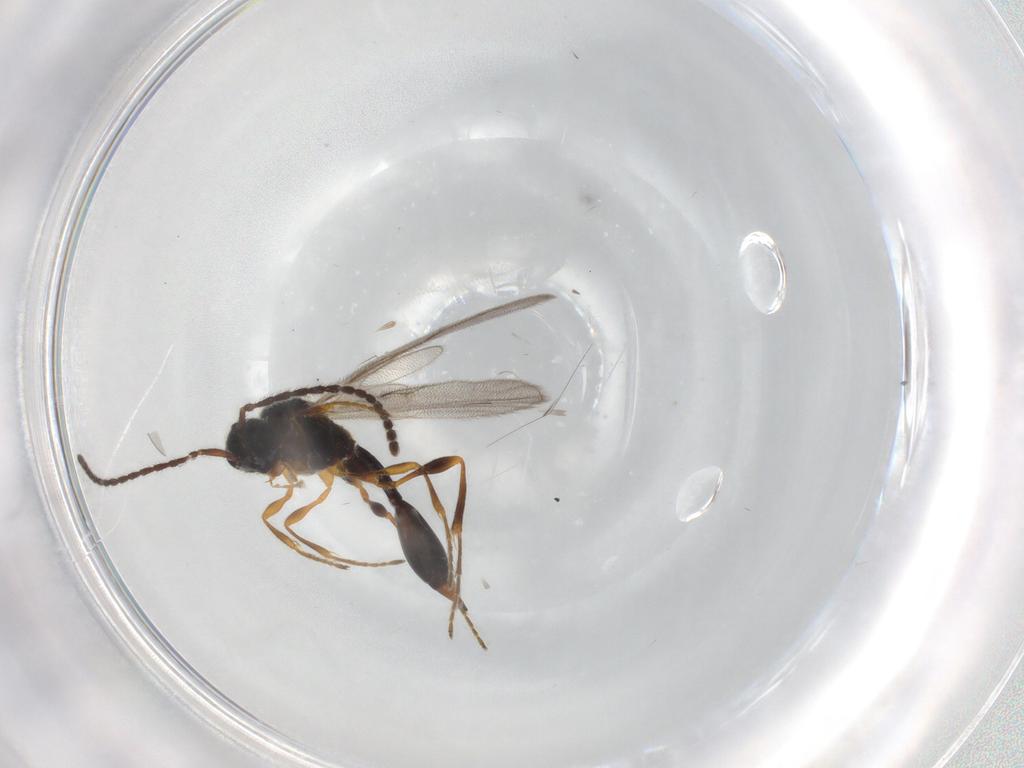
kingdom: Animalia
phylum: Arthropoda
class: Insecta
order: Hymenoptera
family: Diapriidae
